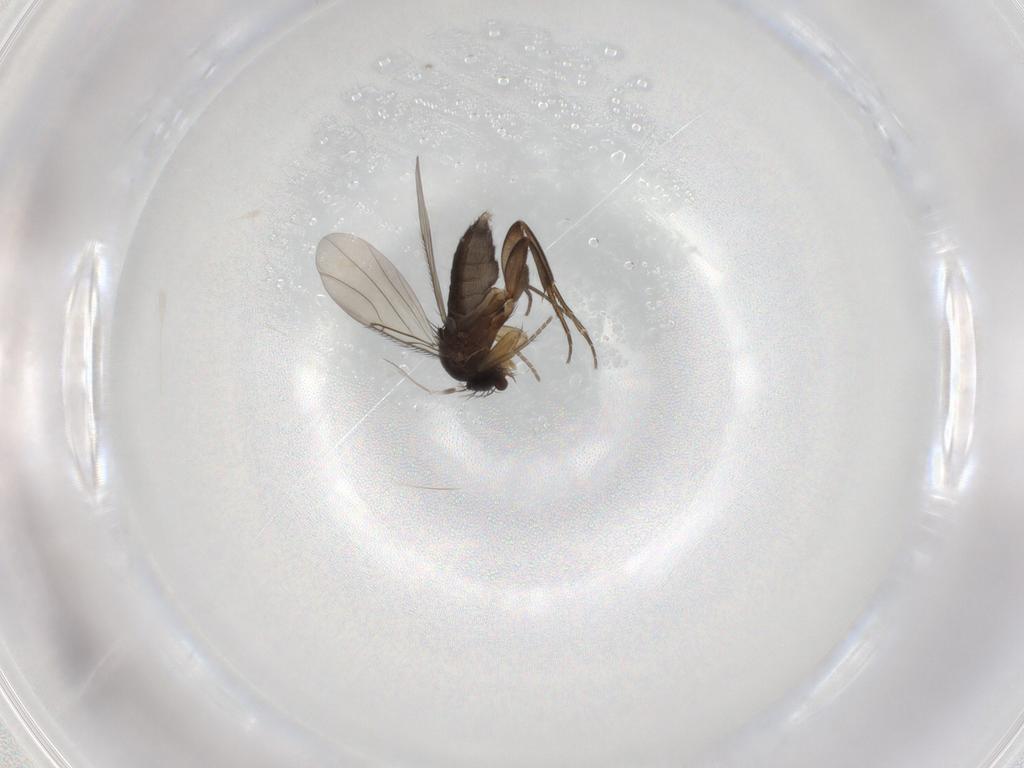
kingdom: Animalia
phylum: Arthropoda
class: Insecta
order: Diptera
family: Phoridae
